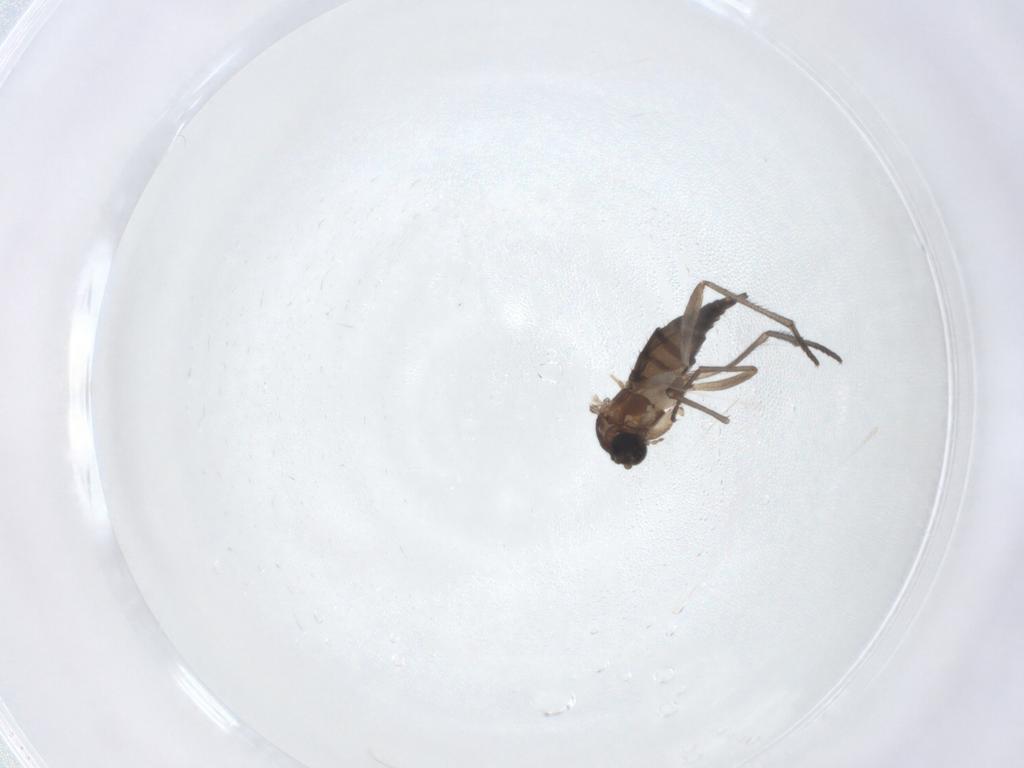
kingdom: Animalia
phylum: Arthropoda
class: Insecta
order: Diptera
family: Sciaridae
